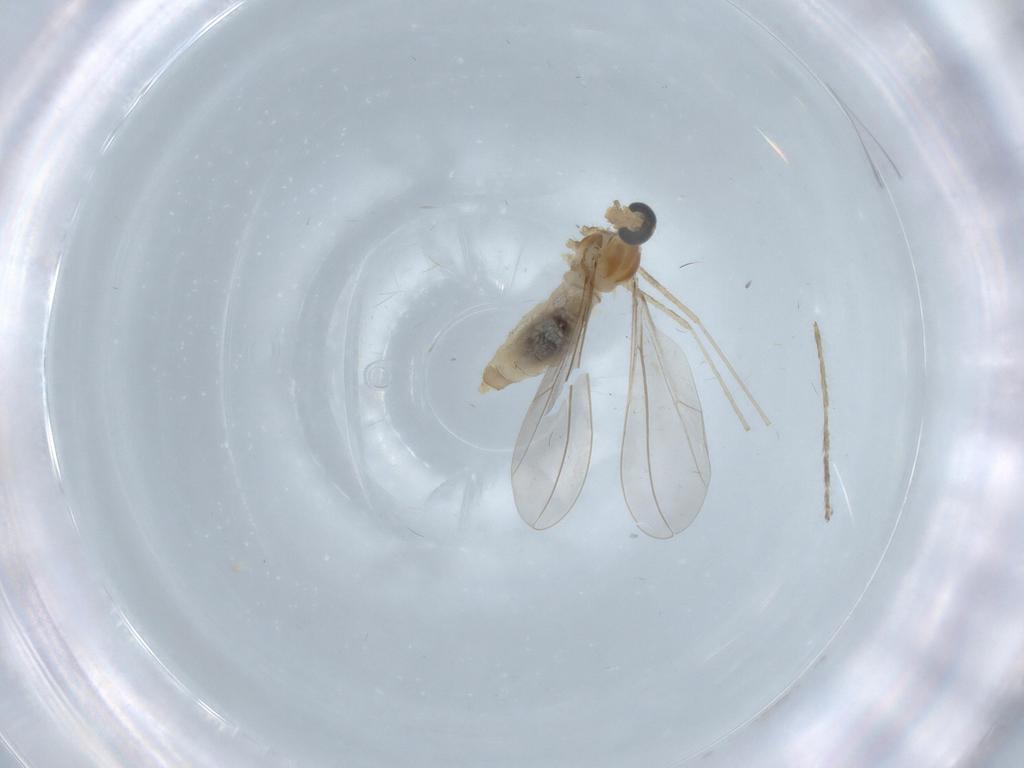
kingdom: Animalia
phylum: Arthropoda
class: Insecta
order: Diptera
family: Cecidomyiidae
